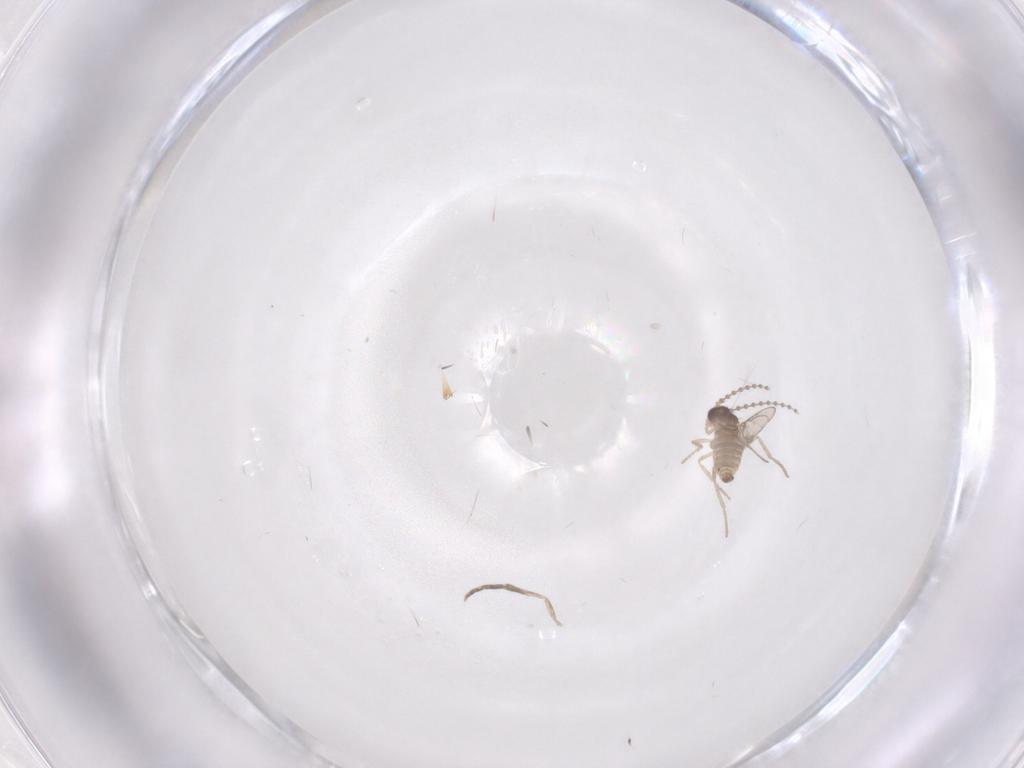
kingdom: Animalia
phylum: Arthropoda
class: Insecta
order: Diptera
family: Cecidomyiidae
